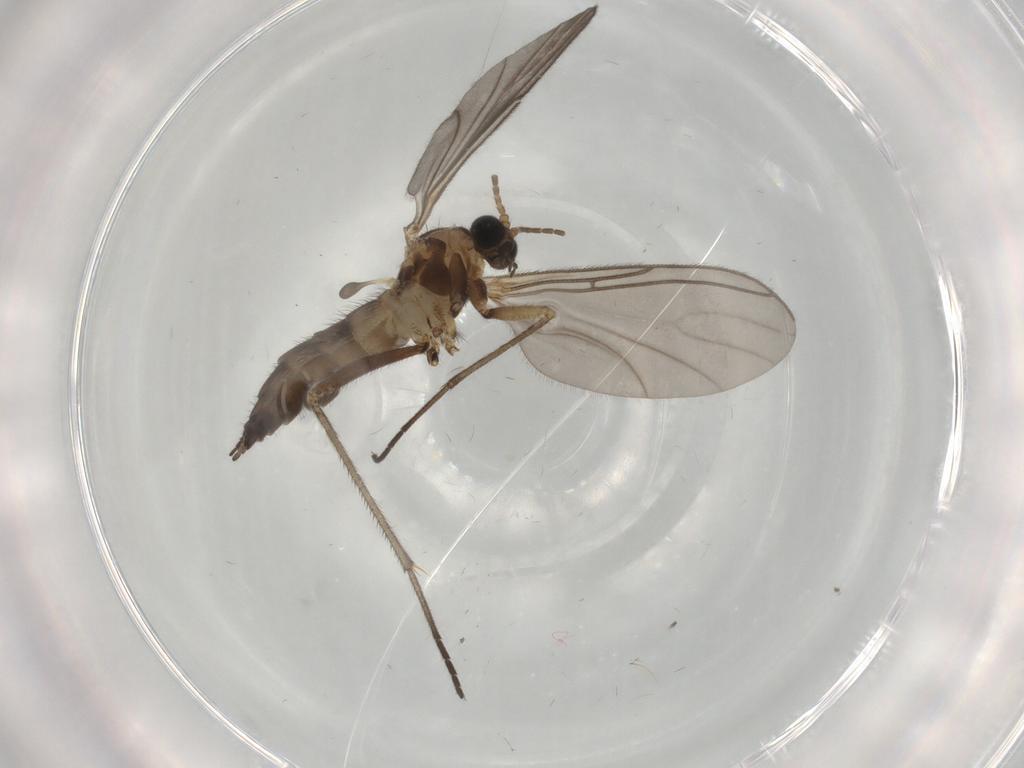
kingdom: Animalia
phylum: Arthropoda
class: Insecta
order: Diptera
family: Sciaridae
